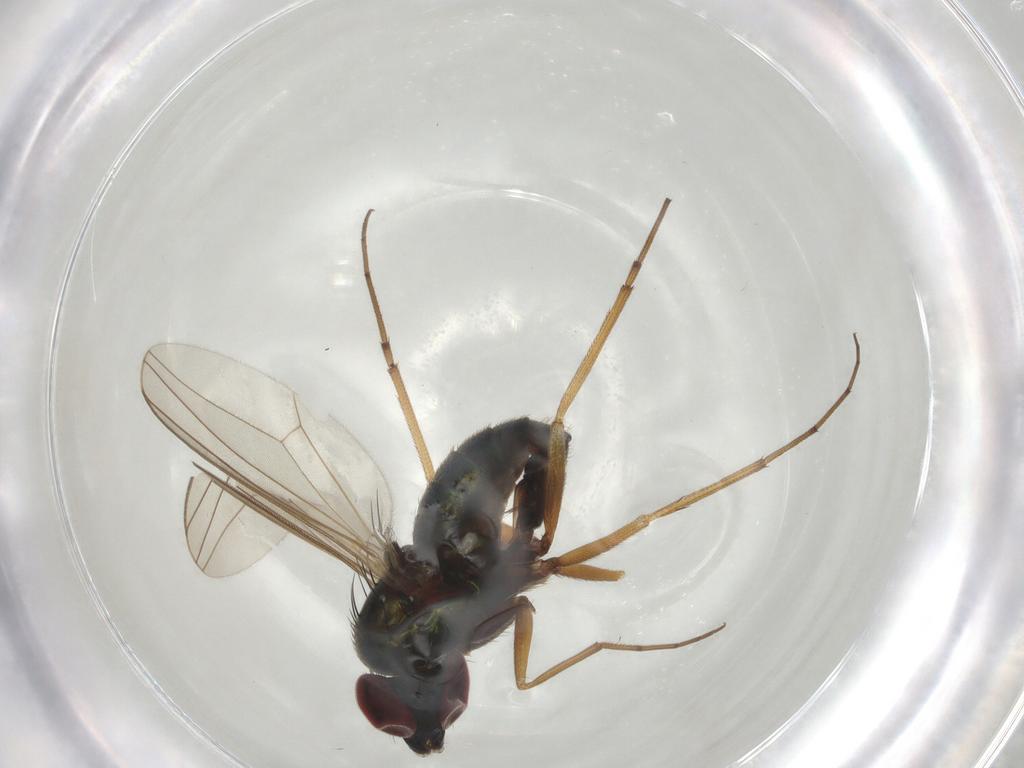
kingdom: Animalia
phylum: Arthropoda
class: Insecta
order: Diptera
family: Dolichopodidae
